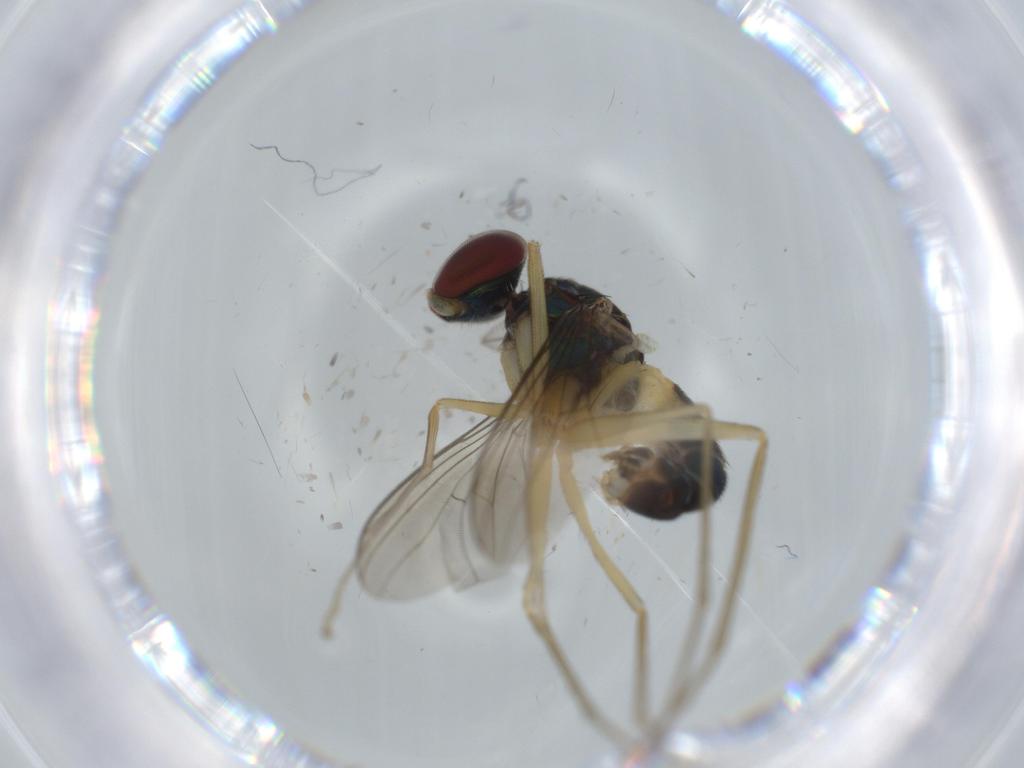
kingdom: Animalia
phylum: Arthropoda
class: Insecta
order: Diptera
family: Dolichopodidae
